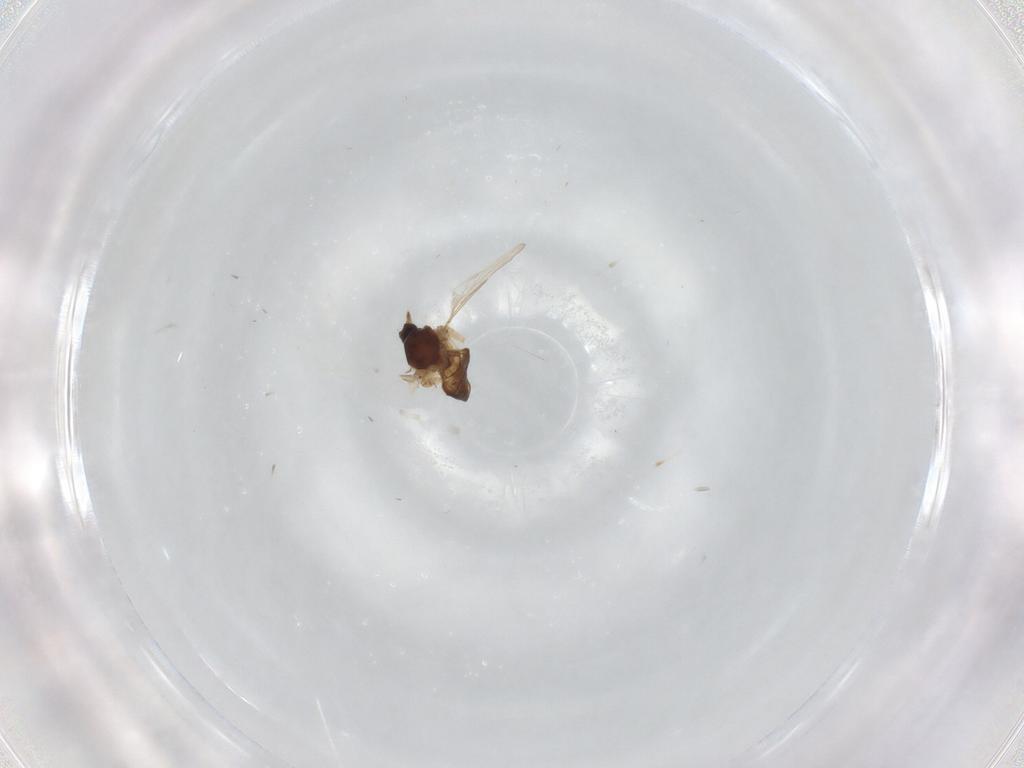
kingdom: Animalia
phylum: Arthropoda
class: Insecta
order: Diptera
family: Ceratopogonidae
